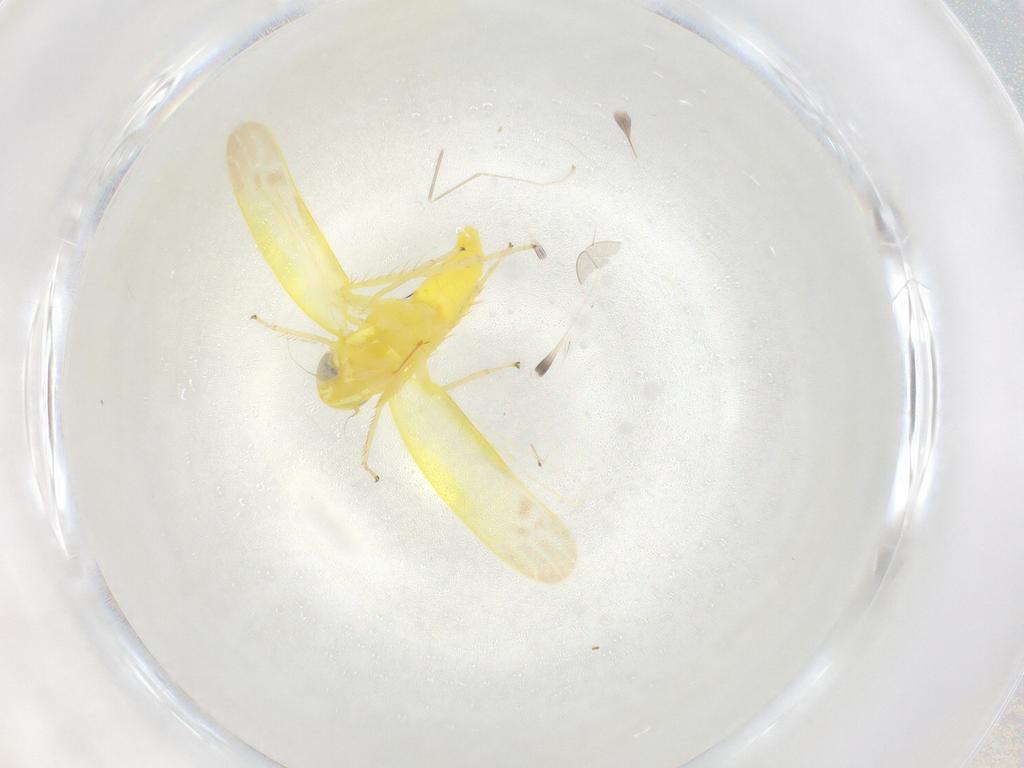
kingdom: Animalia
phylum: Arthropoda
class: Insecta
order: Hemiptera
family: Cicadellidae
